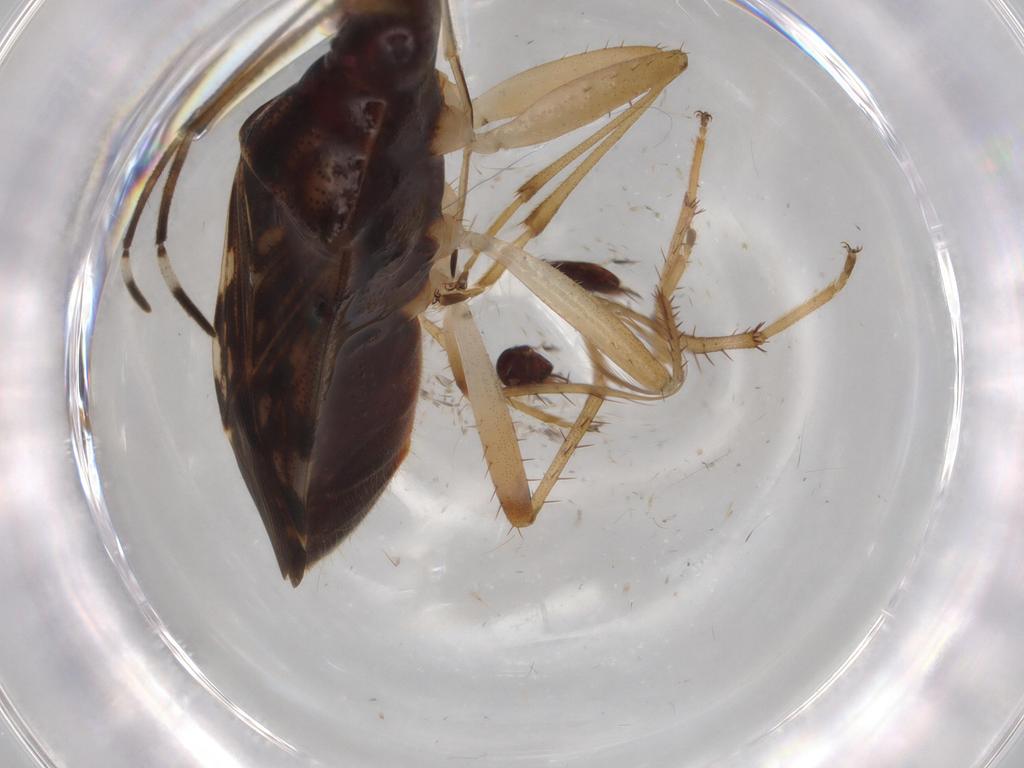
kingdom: Animalia
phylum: Arthropoda
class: Insecta
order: Hemiptera
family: Rhyparochromidae
